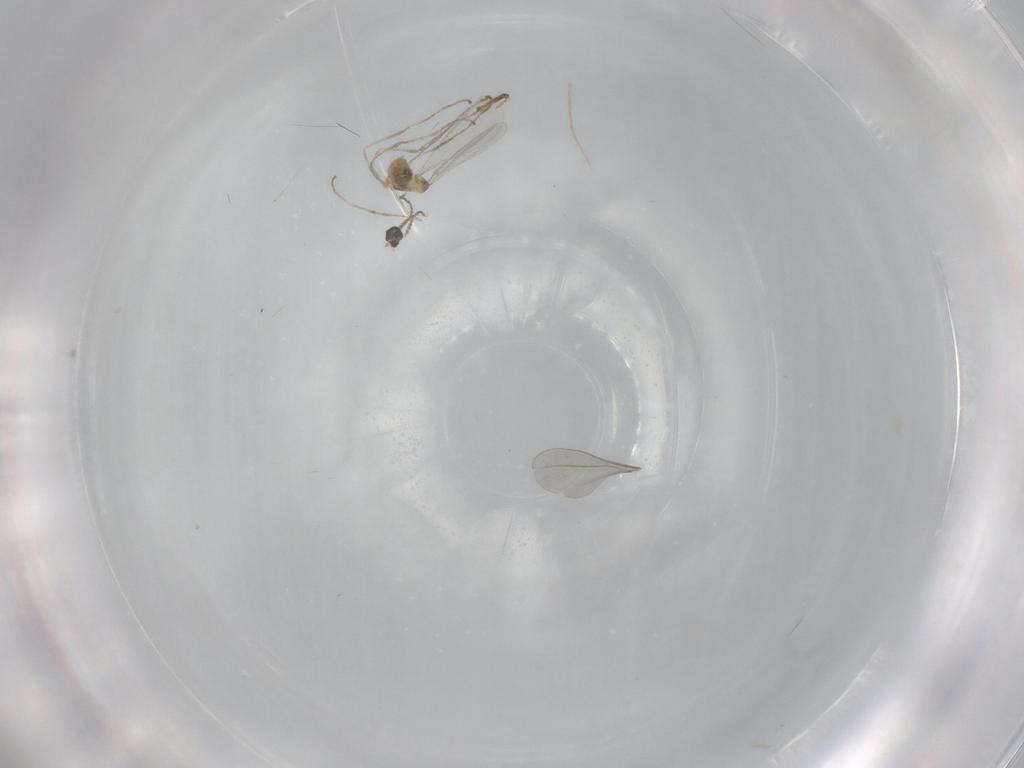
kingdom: Animalia
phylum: Arthropoda
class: Insecta
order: Diptera
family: Cecidomyiidae
